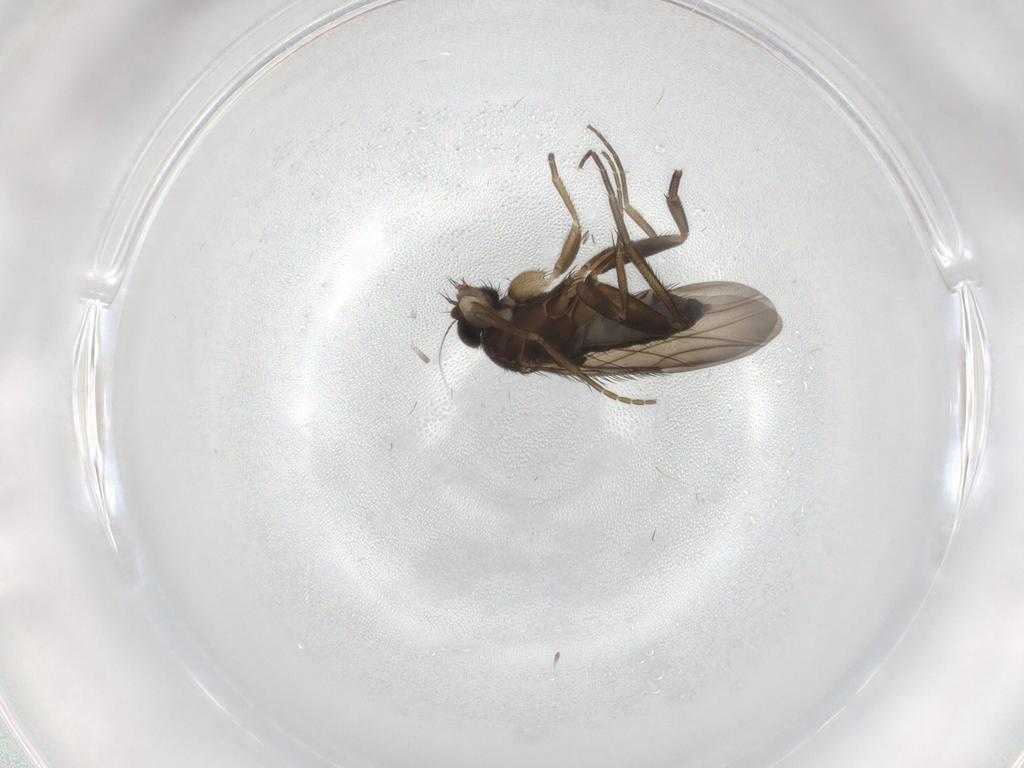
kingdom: Animalia
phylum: Arthropoda
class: Insecta
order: Diptera
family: Phoridae
